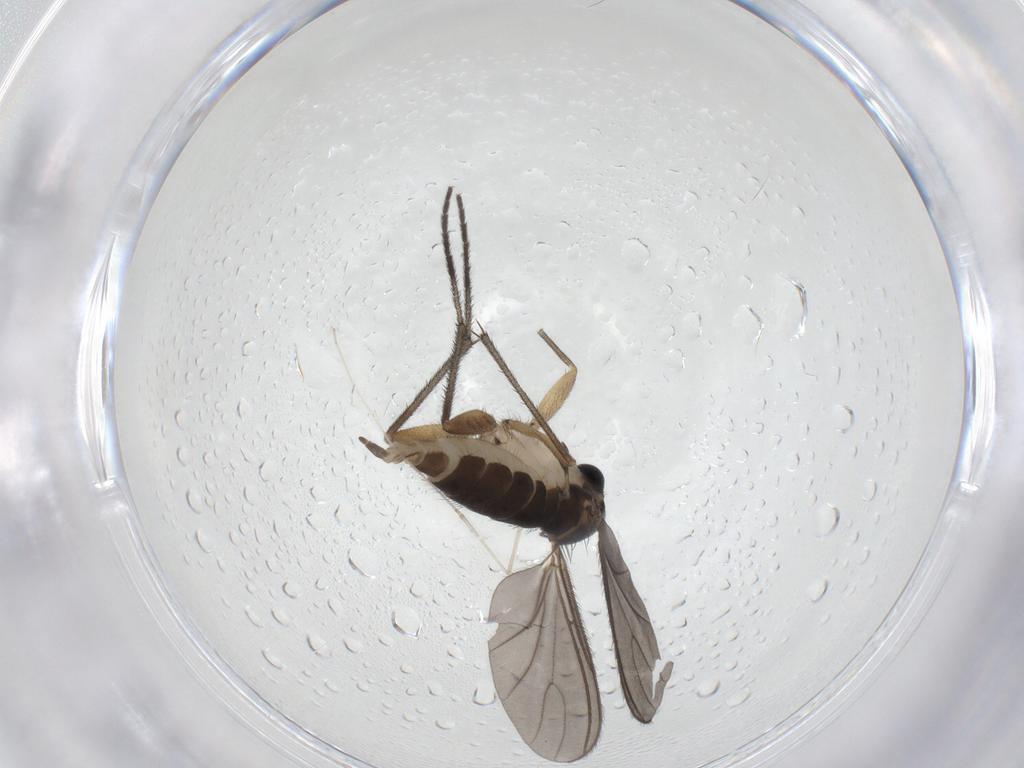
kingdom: Animalia
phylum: Arthropoda
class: Insecta
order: Diptera
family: Sciaridae
